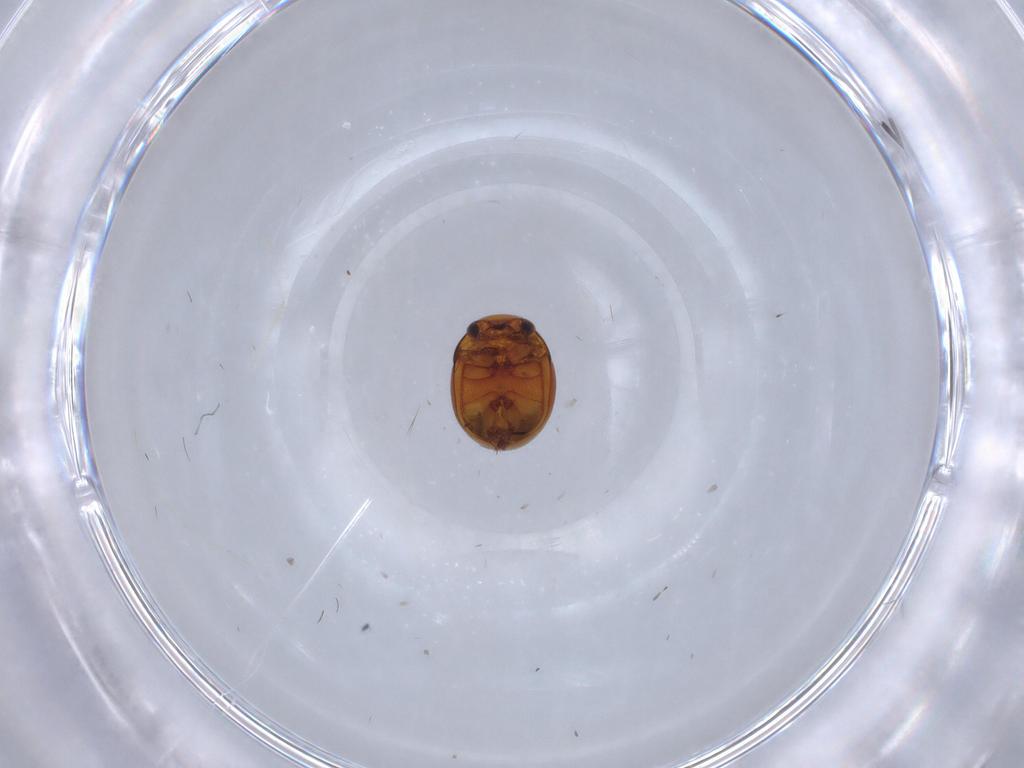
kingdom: Animalia
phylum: Arthropoda
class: Insecta
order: Coleoptera
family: Leiodidae
